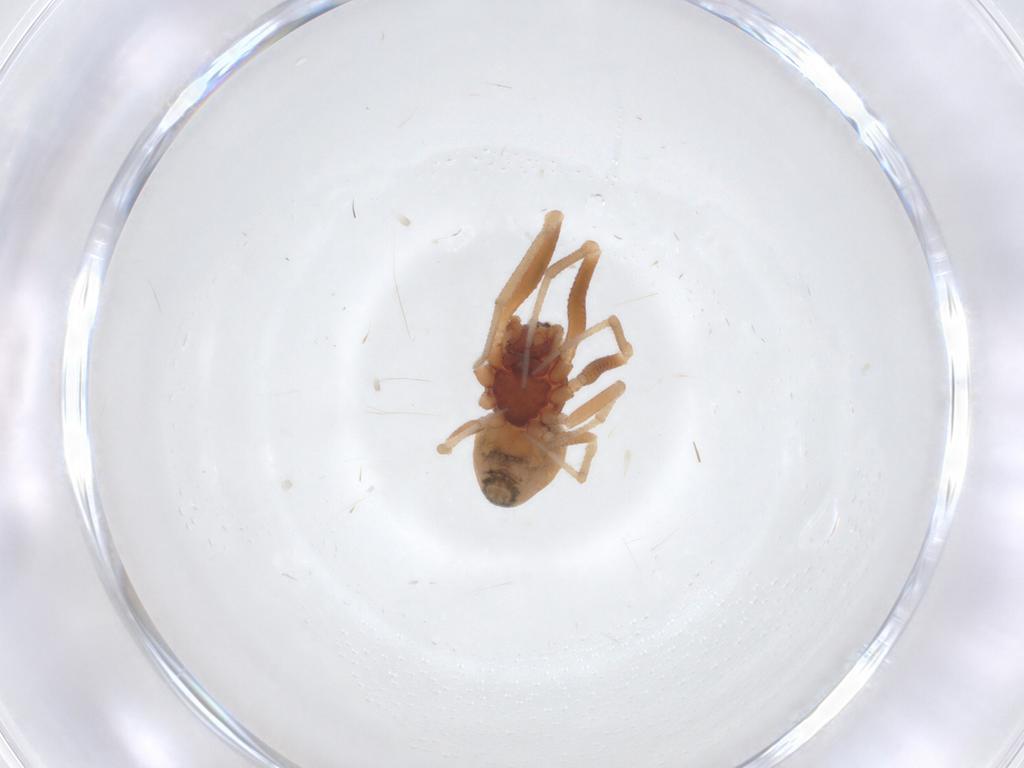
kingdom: Animalia
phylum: Arthropoda
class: Arachnida
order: Araneae
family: Theridiidae
